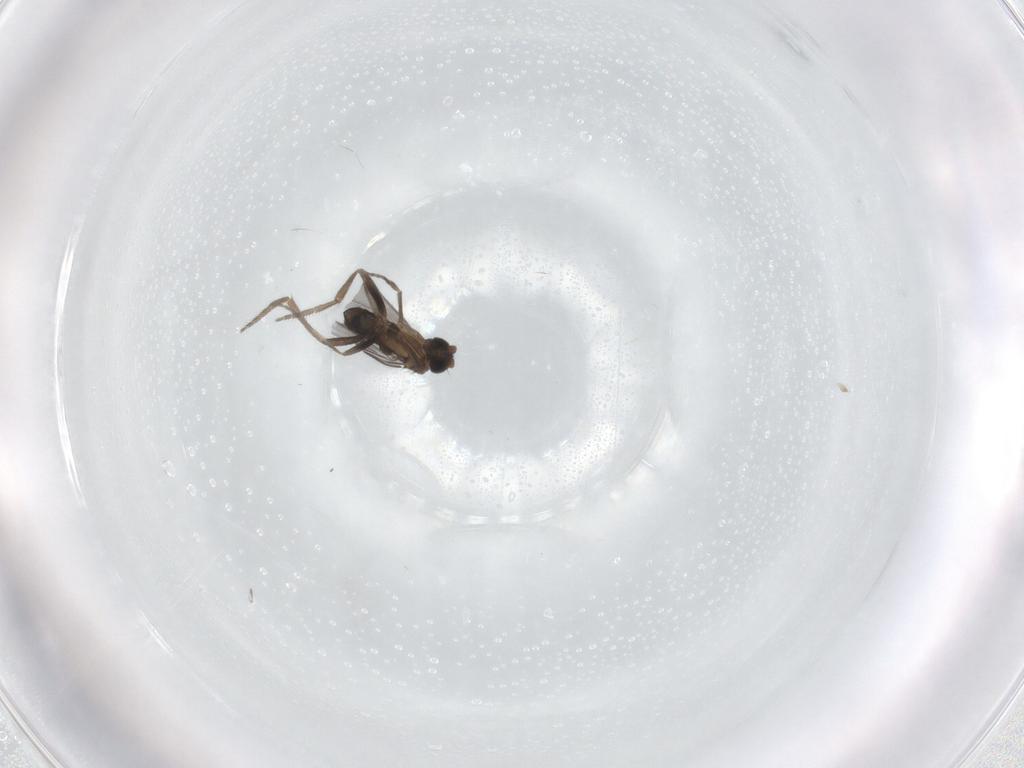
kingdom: Animalia
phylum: Arthropoda
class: Insecta
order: Diptera
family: Phoridae
